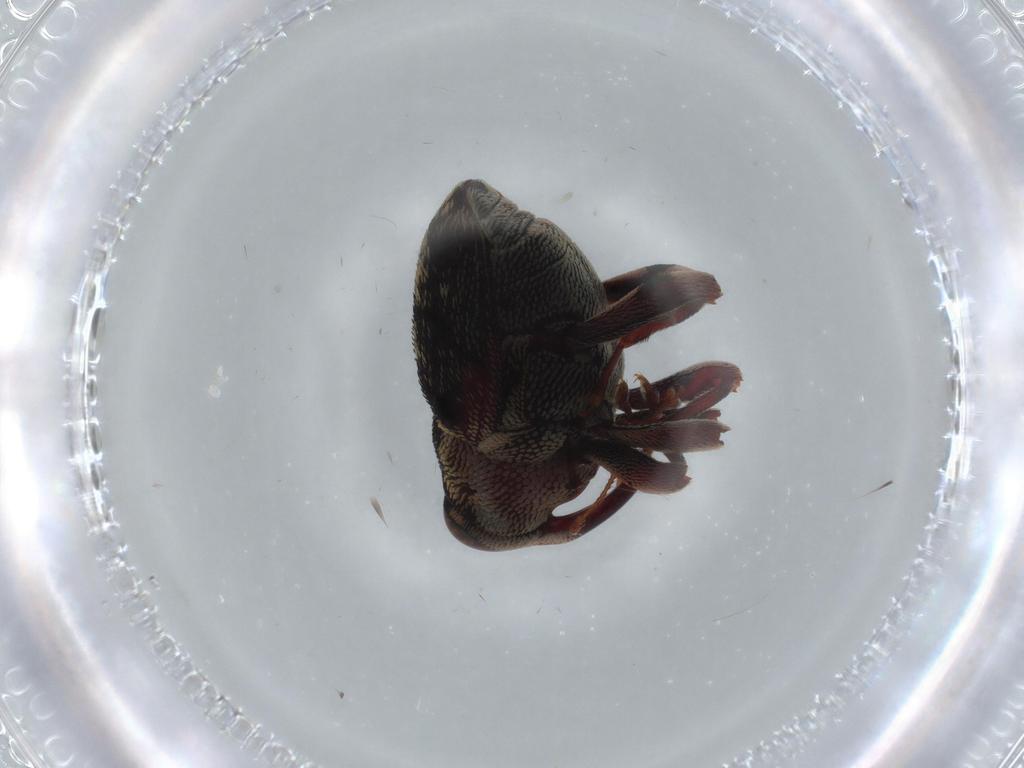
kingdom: Animalia
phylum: Arthropoda
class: Insecta
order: Coleoptera
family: Curculionidae
